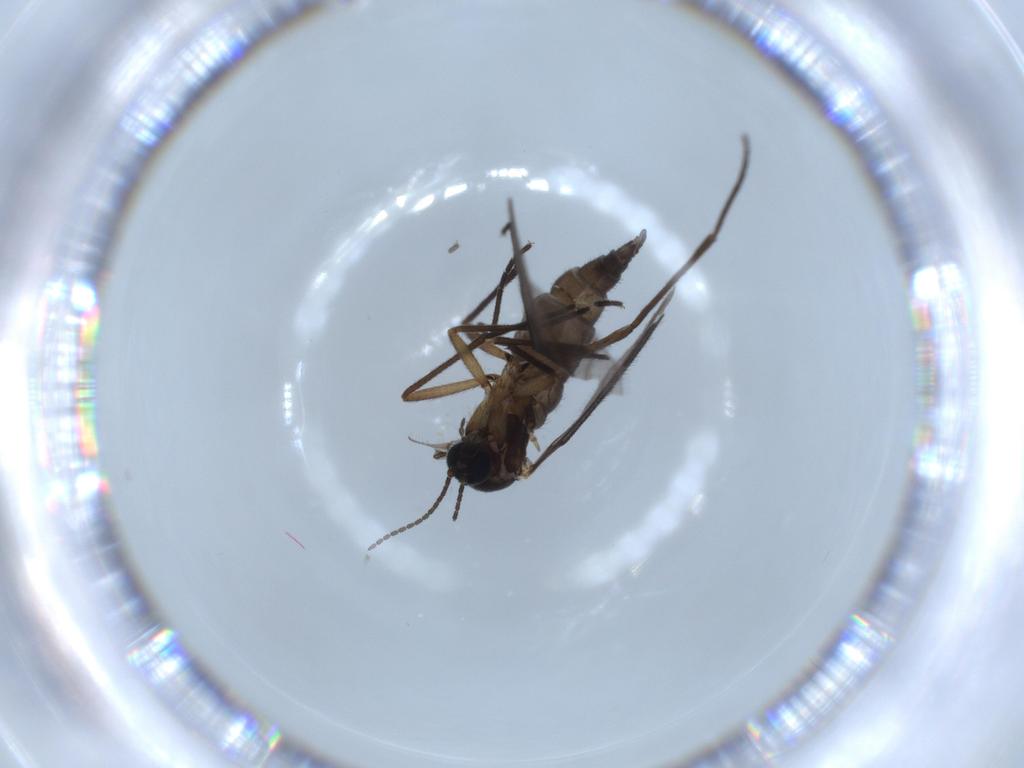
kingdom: Animalia
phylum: Arthropoda
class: Insecta
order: Diptera
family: Sciaridae
